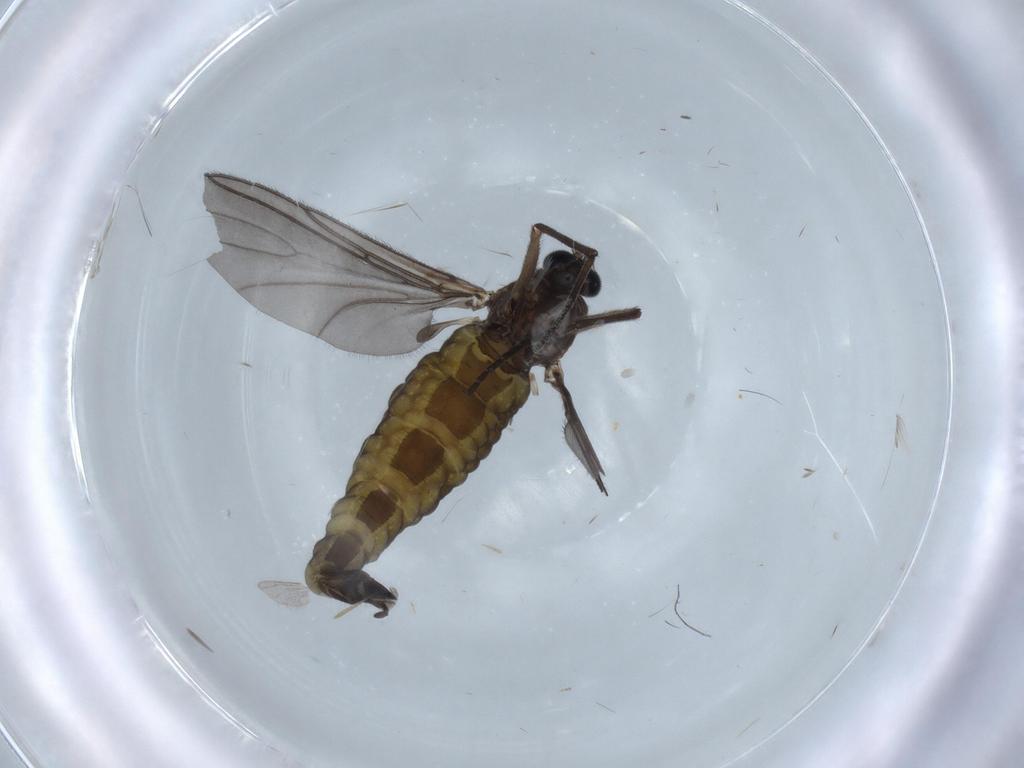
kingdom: Animalia
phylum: Arthropoda
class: Insecta
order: Diptera
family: Sciaridae
